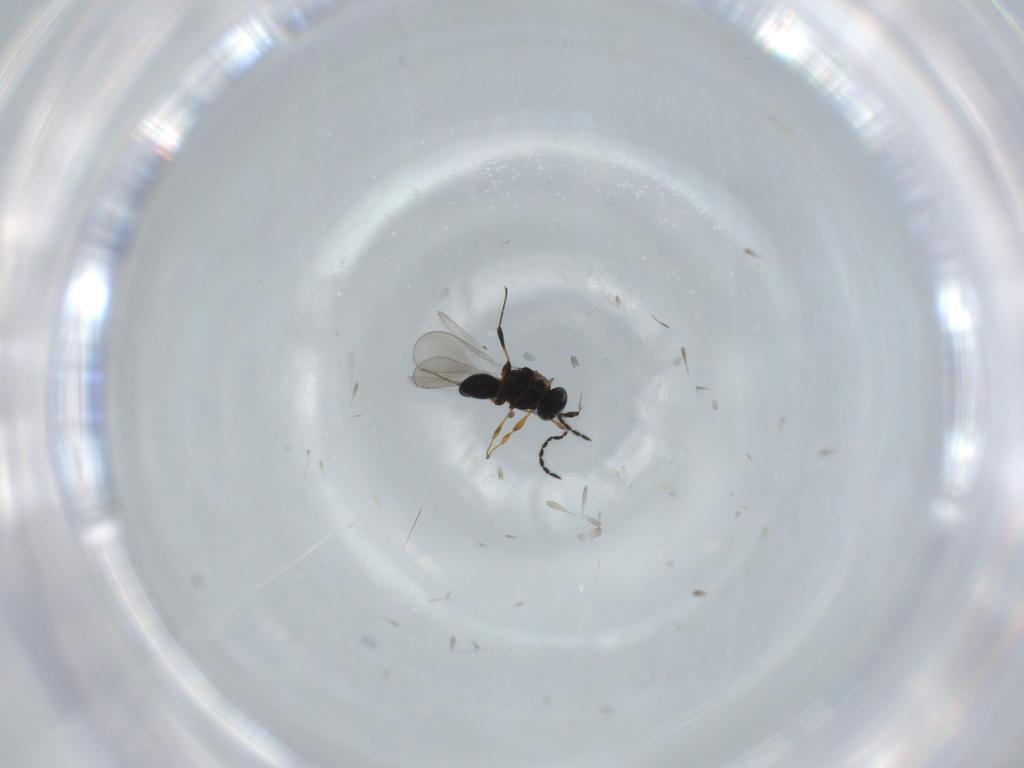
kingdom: Animalia
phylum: Arthropoda
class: Insecta
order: Hymenoptera
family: Platygastridae
